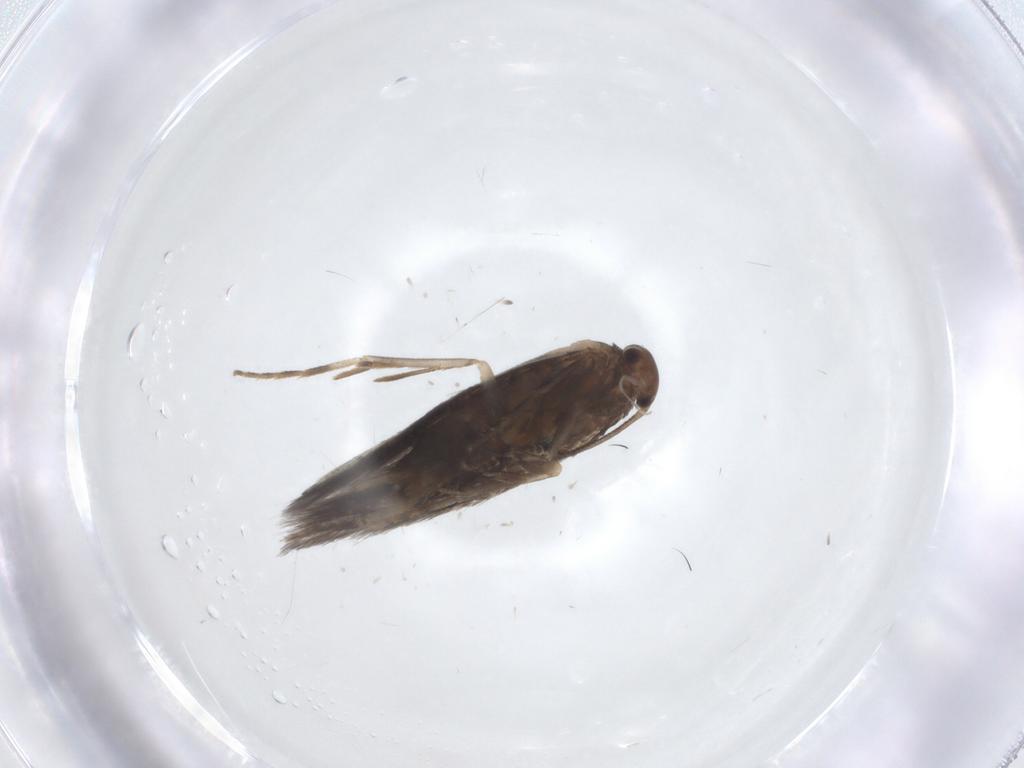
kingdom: Animalia
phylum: Arthropoda
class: Insecta
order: Lepidoptera
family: Elachistidae
